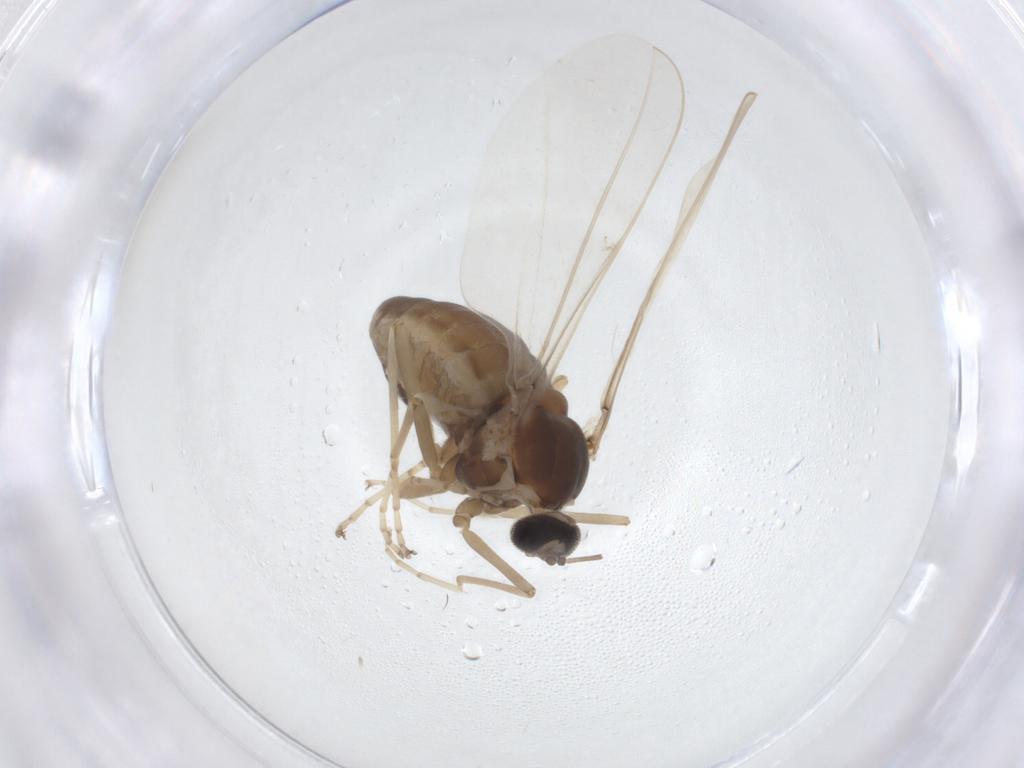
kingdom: Animalia
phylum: Arthropoda
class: Insecta
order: Diptera
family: Cecidomyiidae
